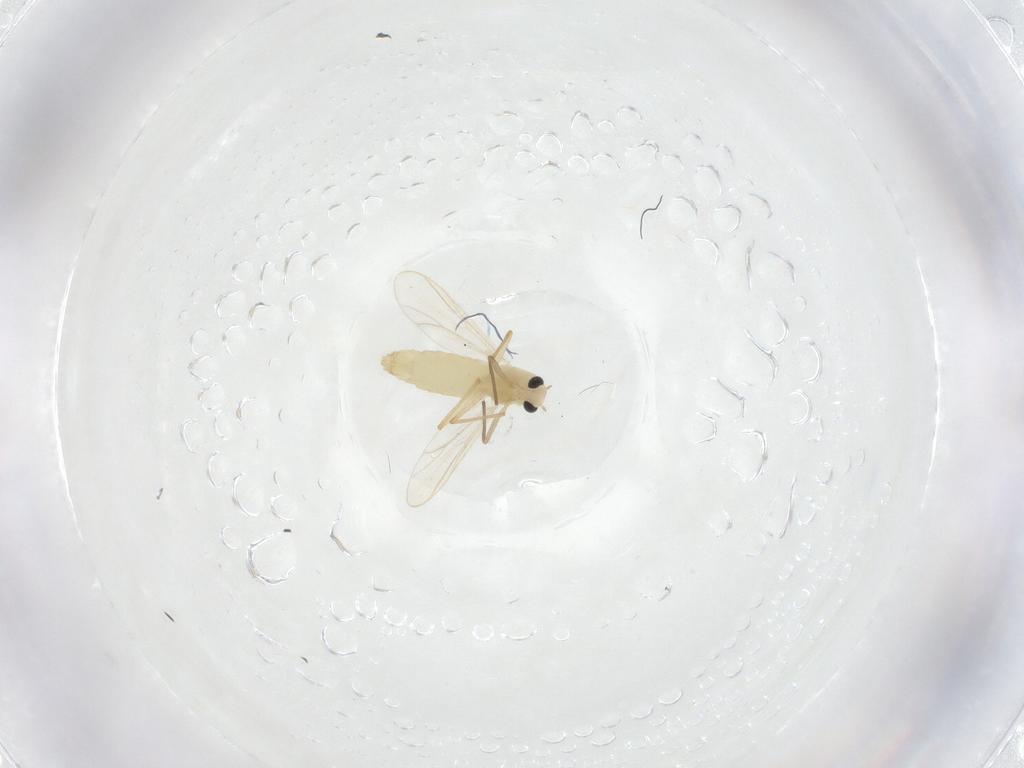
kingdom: Animalia
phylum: Arthropoda
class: Insecta
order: Diptera
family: Chironomidae
